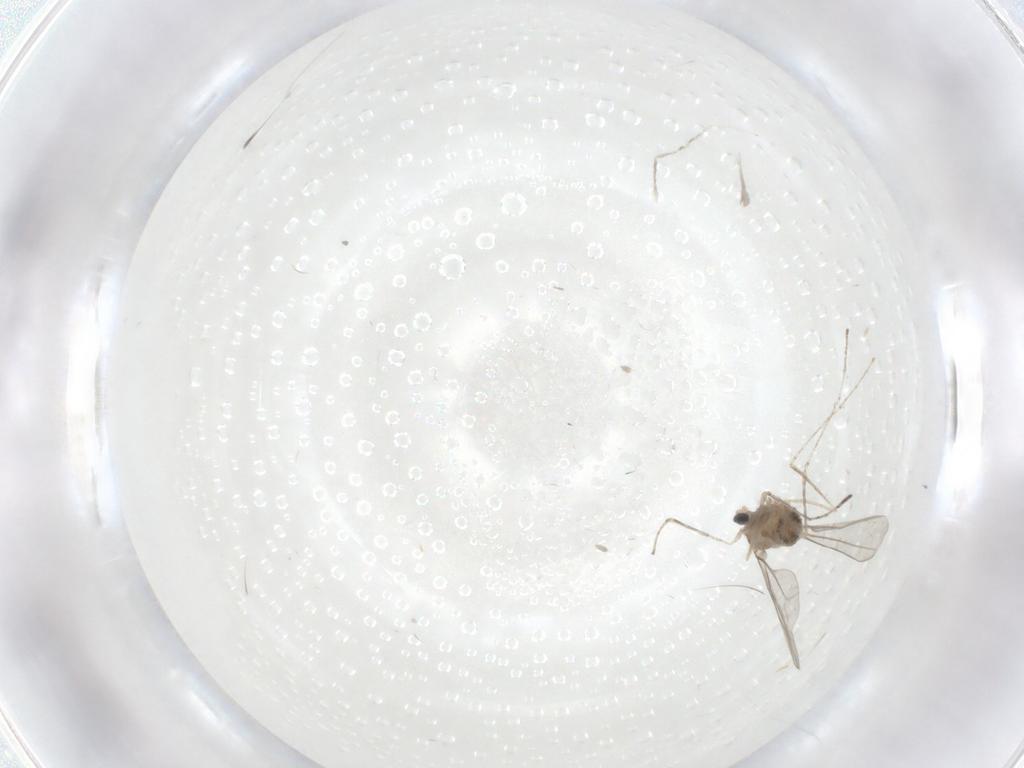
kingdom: Animalia
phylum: Arthropoda
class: Insecta
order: Diptera
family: Cecidomyiidae
